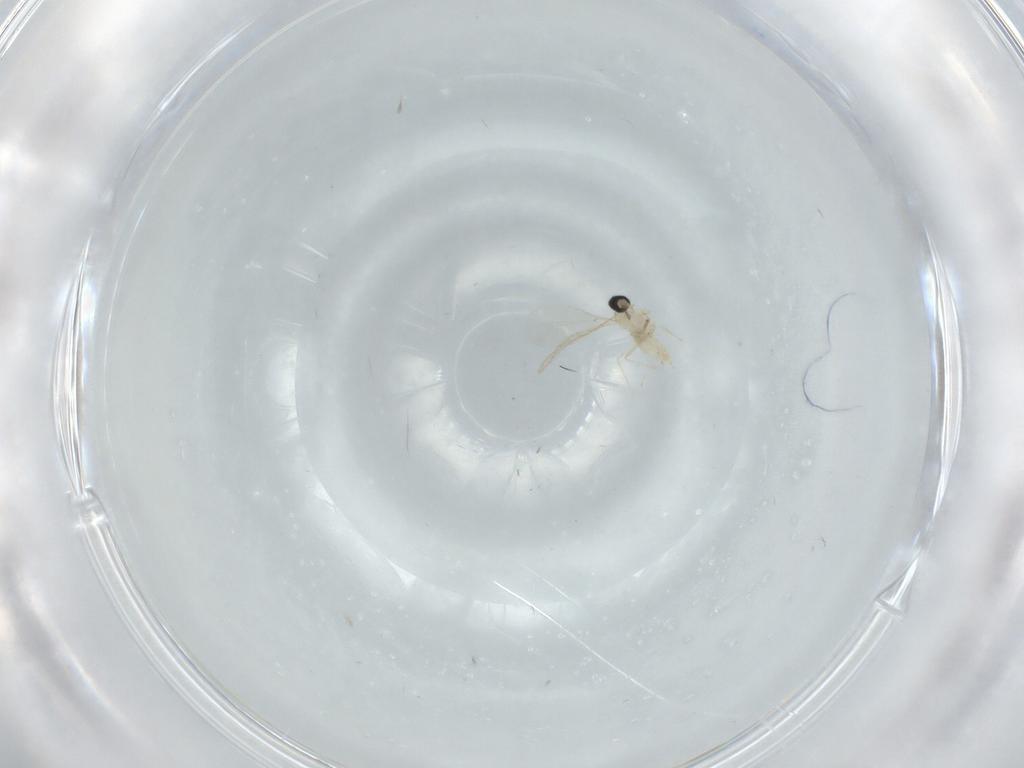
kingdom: Animalia
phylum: Arthropoda
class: Insecta
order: Diptera
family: Psychodidae
